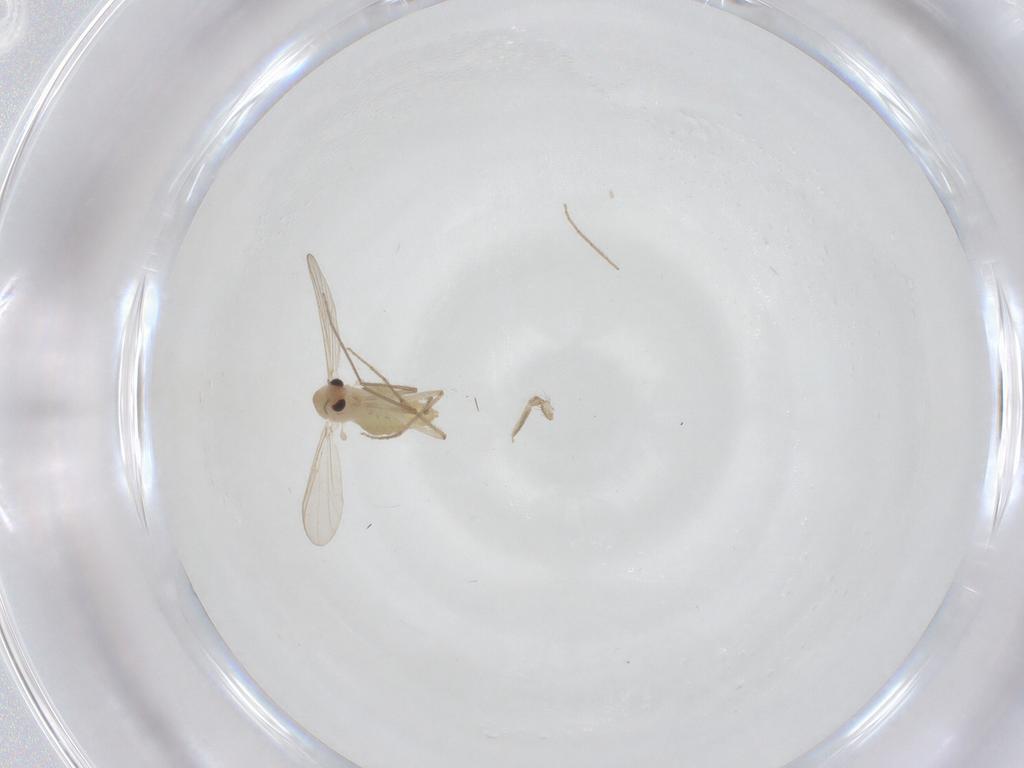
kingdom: Animalia
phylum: Arthropoda
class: Insecta
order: Diptera
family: Chironomidae
